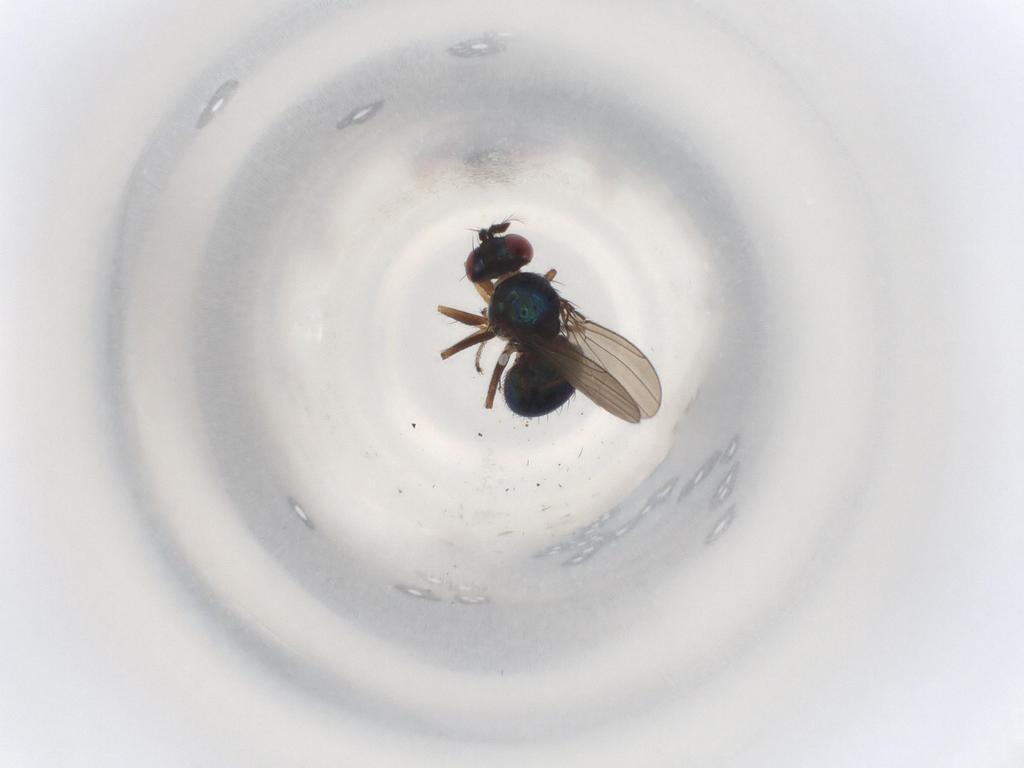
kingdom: Animalia
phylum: Arthropoda
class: Insecta
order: Diptera
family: Ephydridae
